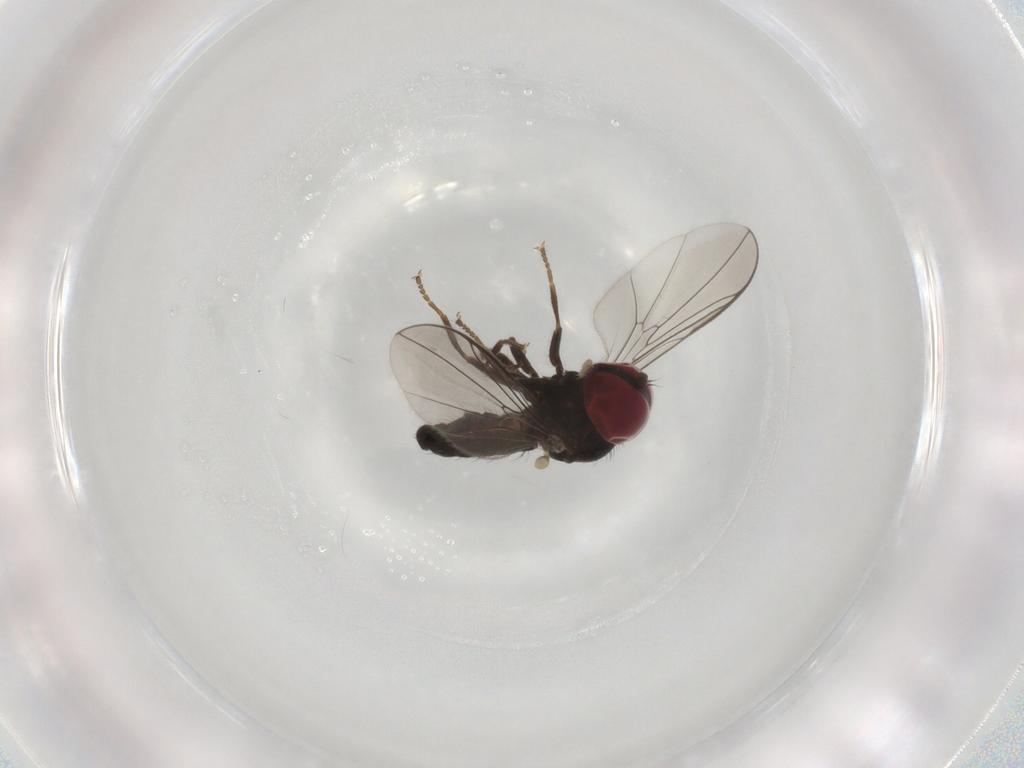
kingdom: Animalia
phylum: Arthropoda
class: Insecta
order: Diptera
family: Pipunculidae
